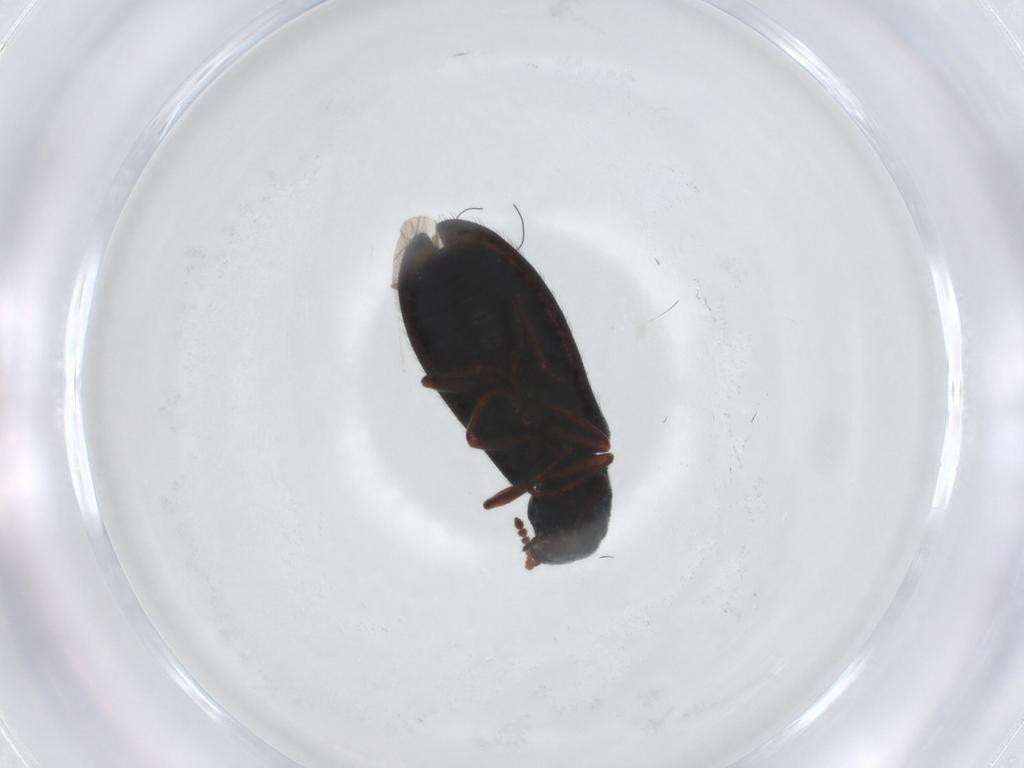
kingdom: Animalia
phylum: Arthropoda
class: Insecta
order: Coleoptera
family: Melyridae
